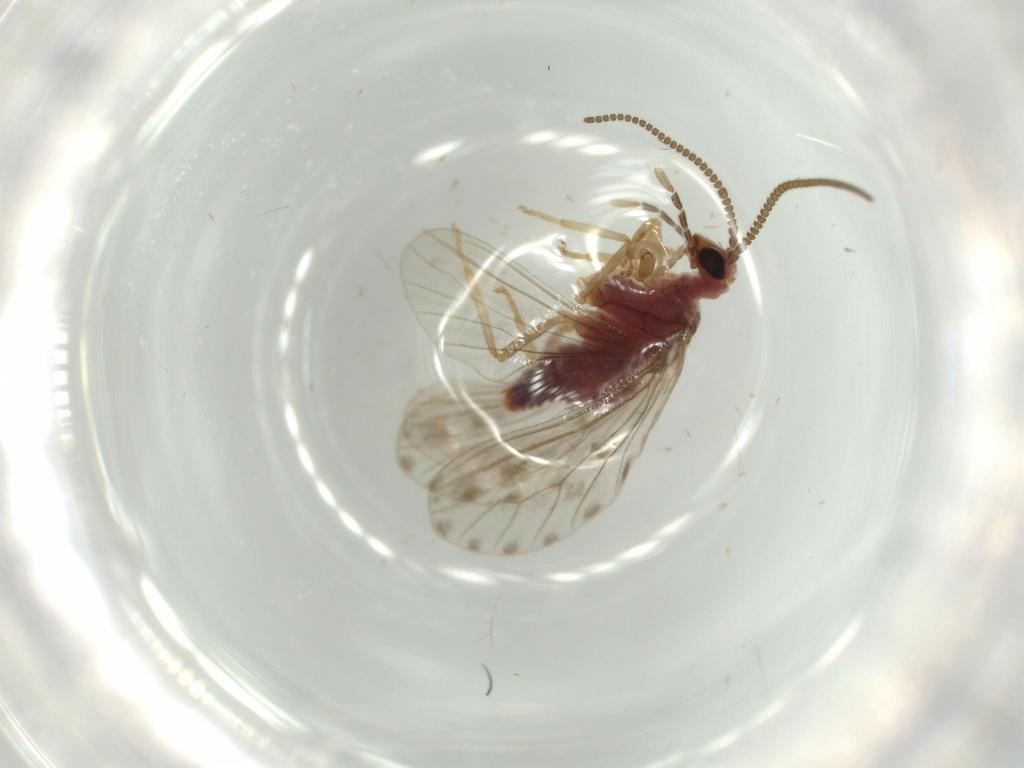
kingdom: Animalia
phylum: Arthropoda
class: Insecta
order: Neuroptera
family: Coniopterygidae
